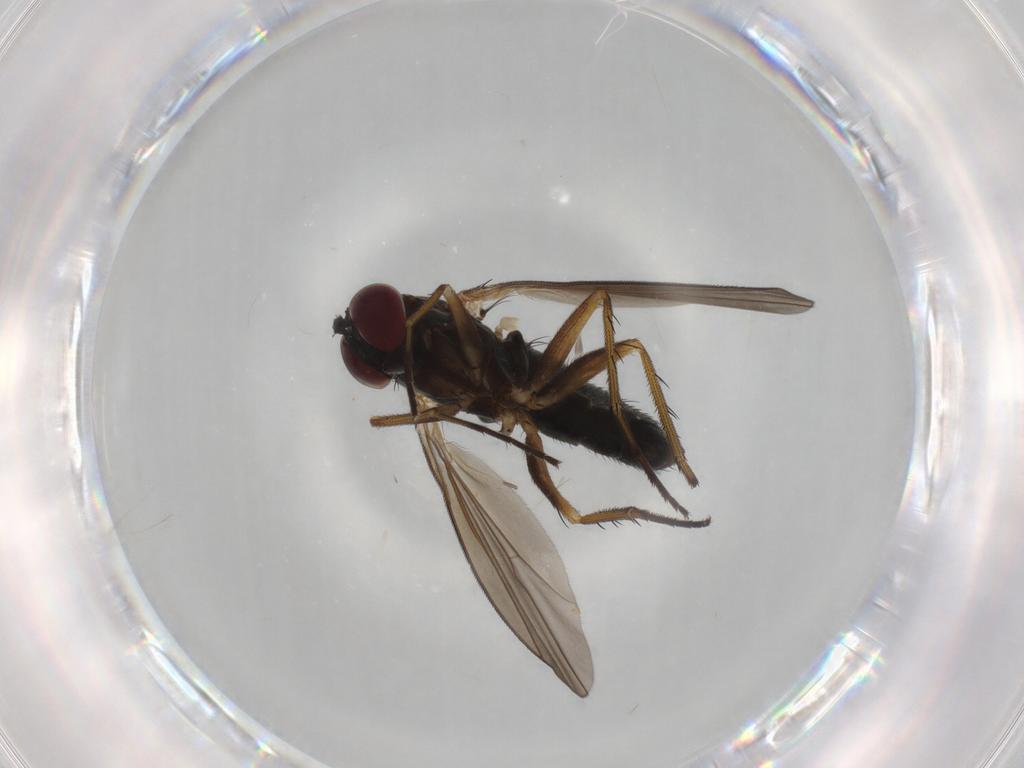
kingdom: Animalia
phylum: Arthropoda
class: Insecta
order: Diptera
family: Dolichopodidae
